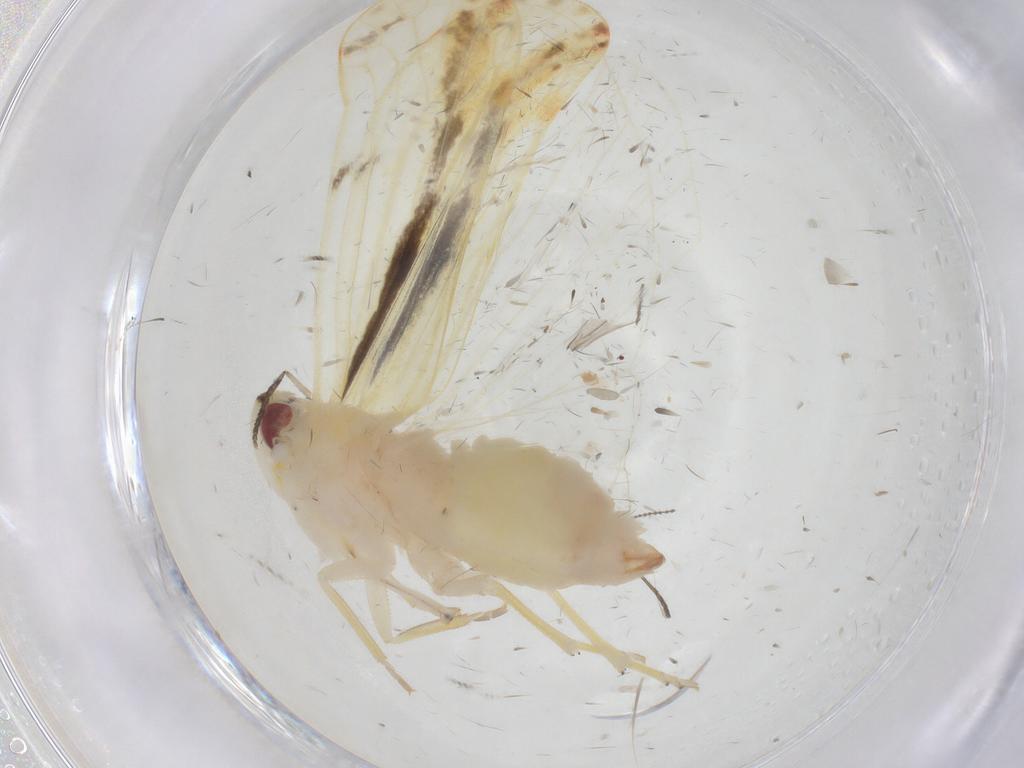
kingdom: Animalia
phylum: Arthropoda
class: Insecta
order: Hemiptera
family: Derbidae
